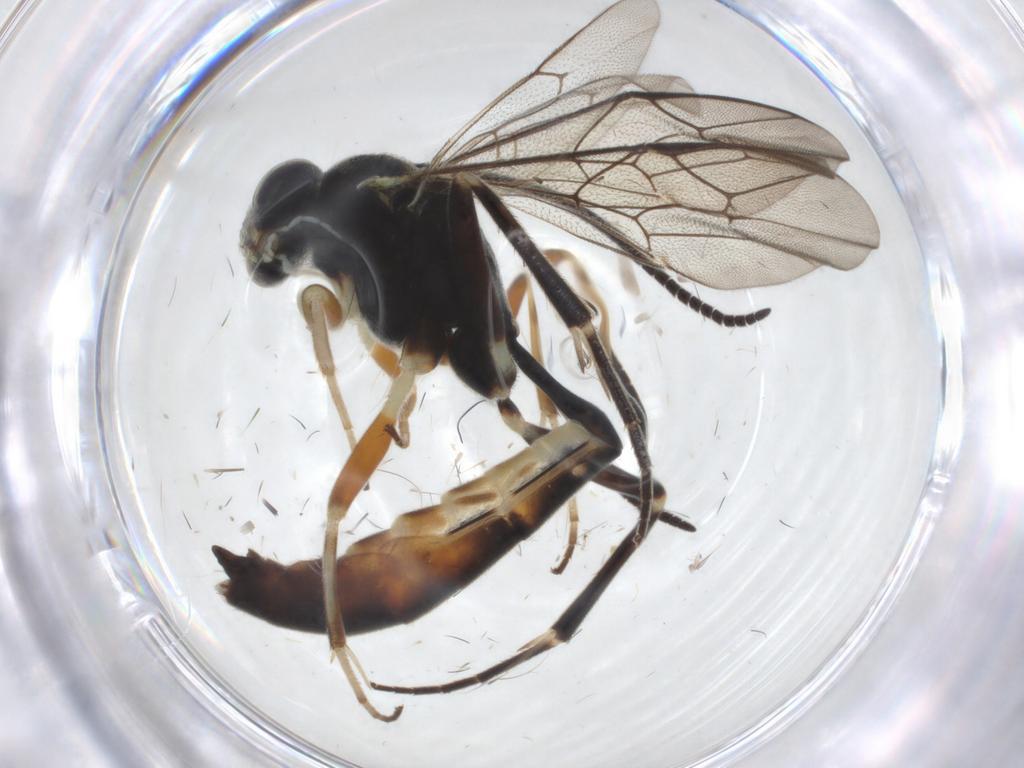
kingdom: Animalia
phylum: Arthropoda
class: Insecta
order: Hymenoptera
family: Ichneumonidae
